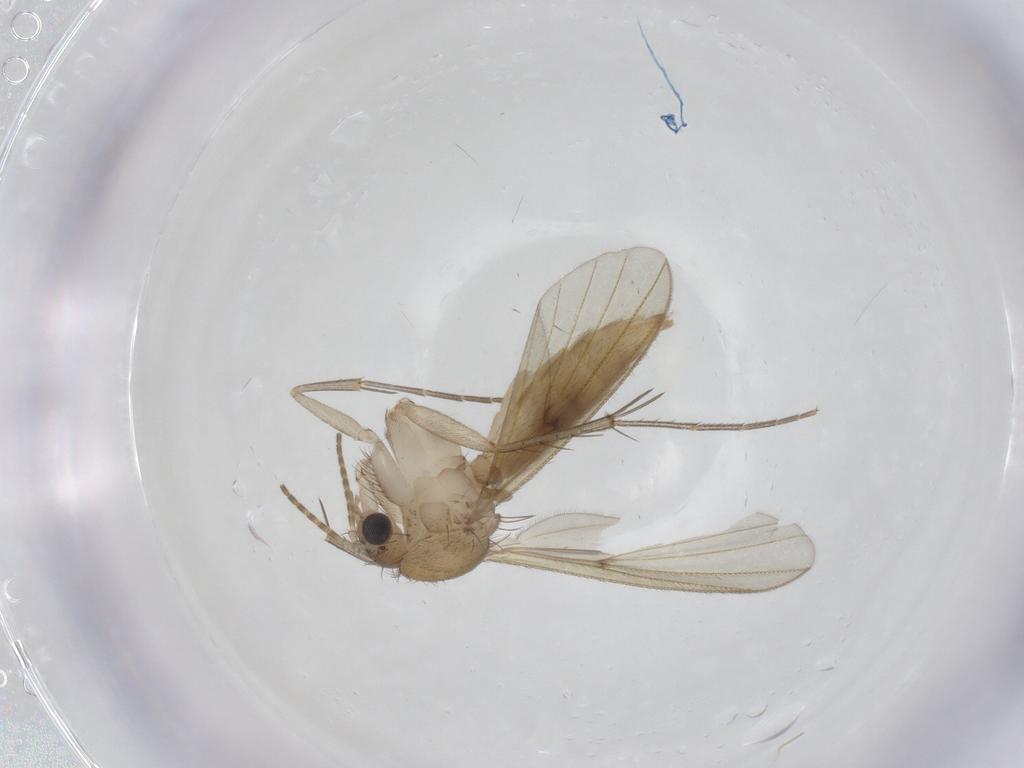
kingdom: Animalia
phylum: Arthropoda
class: Insecta
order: Diptera
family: Mycetophilidae
